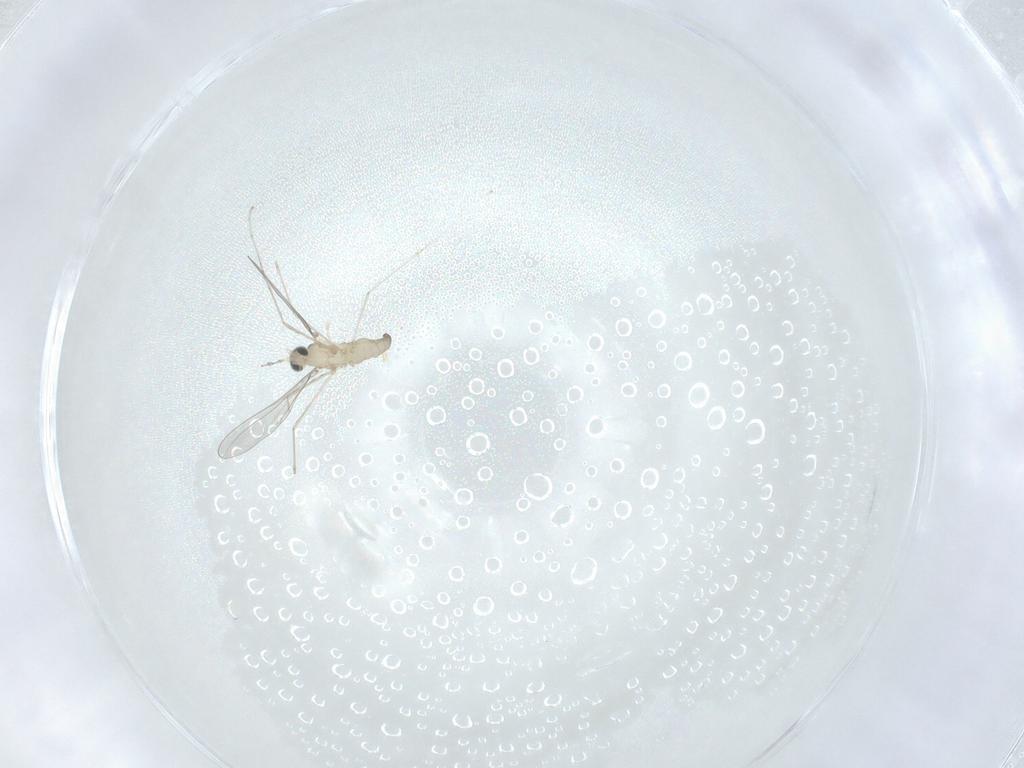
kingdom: Animalia
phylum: Arthropoda
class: Insecta
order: Diptera
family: Cecidomyiidae
